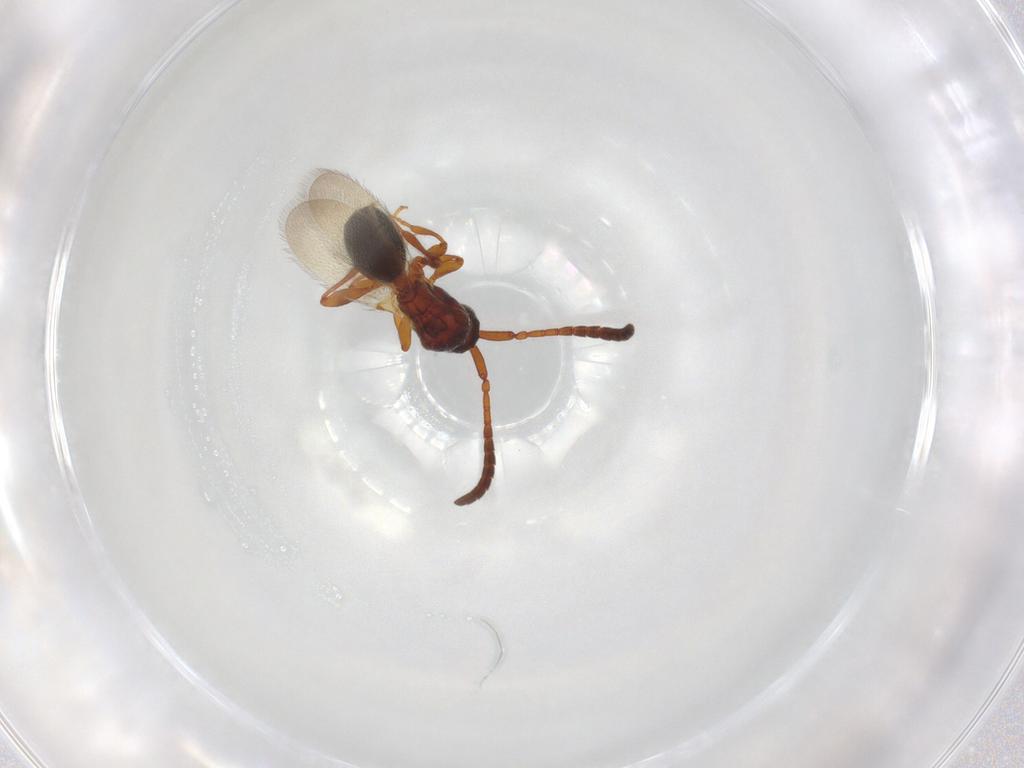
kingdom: Animalia
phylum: Arthropoda
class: Insecta
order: Hymenoptera
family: Diapriidae
